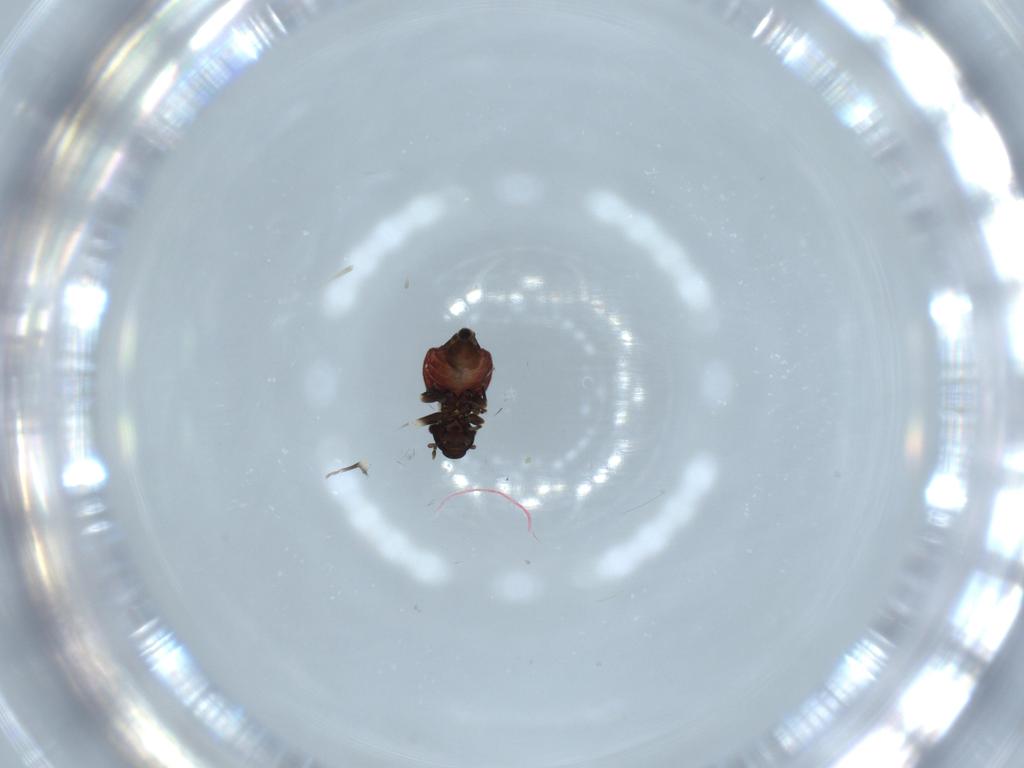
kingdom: Animalia
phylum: Arthropoda
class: Insecta
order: Psocodea
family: Lepidopsocidae
